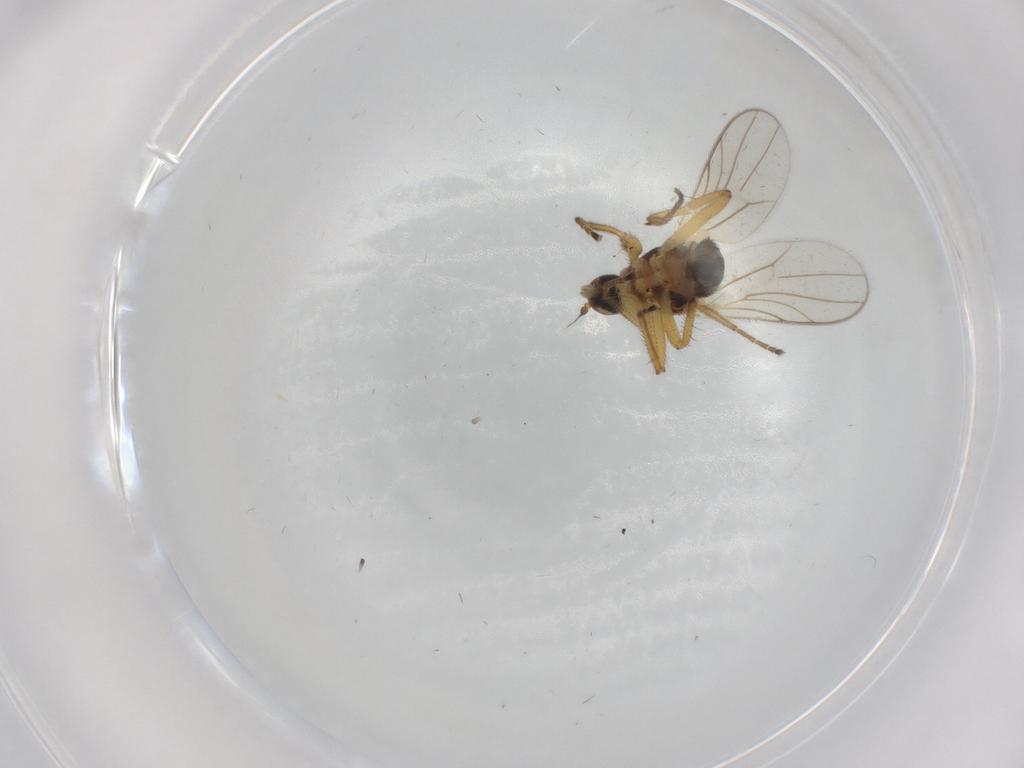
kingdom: Animalia
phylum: Arthropoda
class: Insecta
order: Diptera
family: Hybotidae
